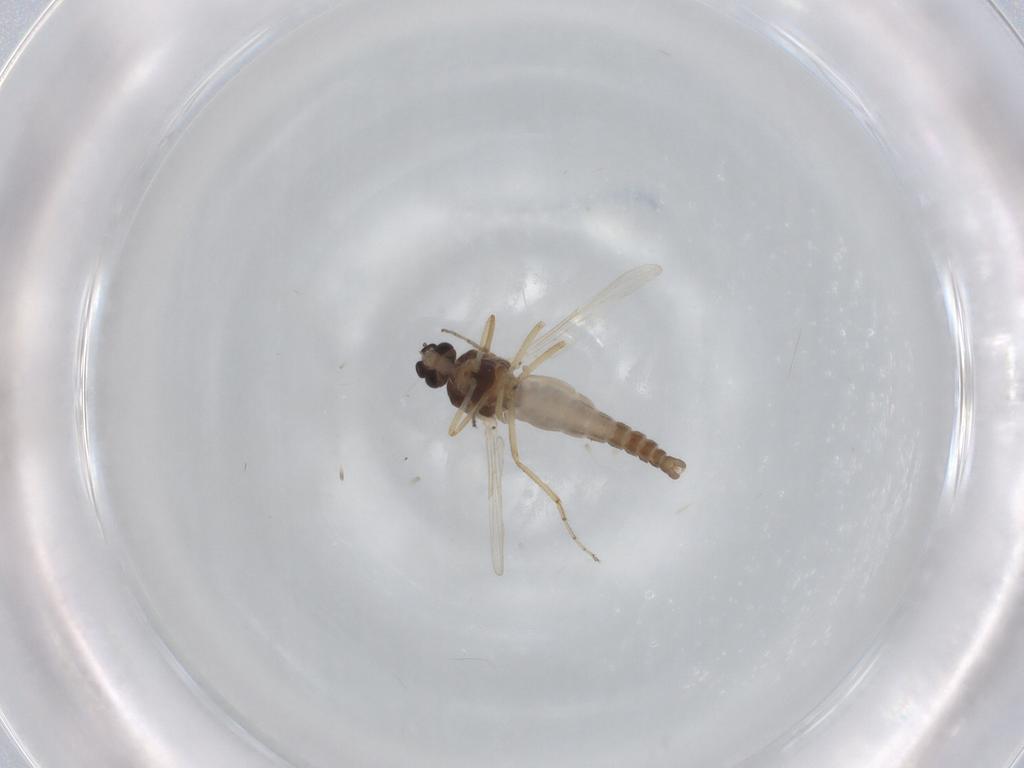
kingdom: Animalia
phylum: Arthropoda
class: Insecta
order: Diptera
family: Ceratopogonidae
